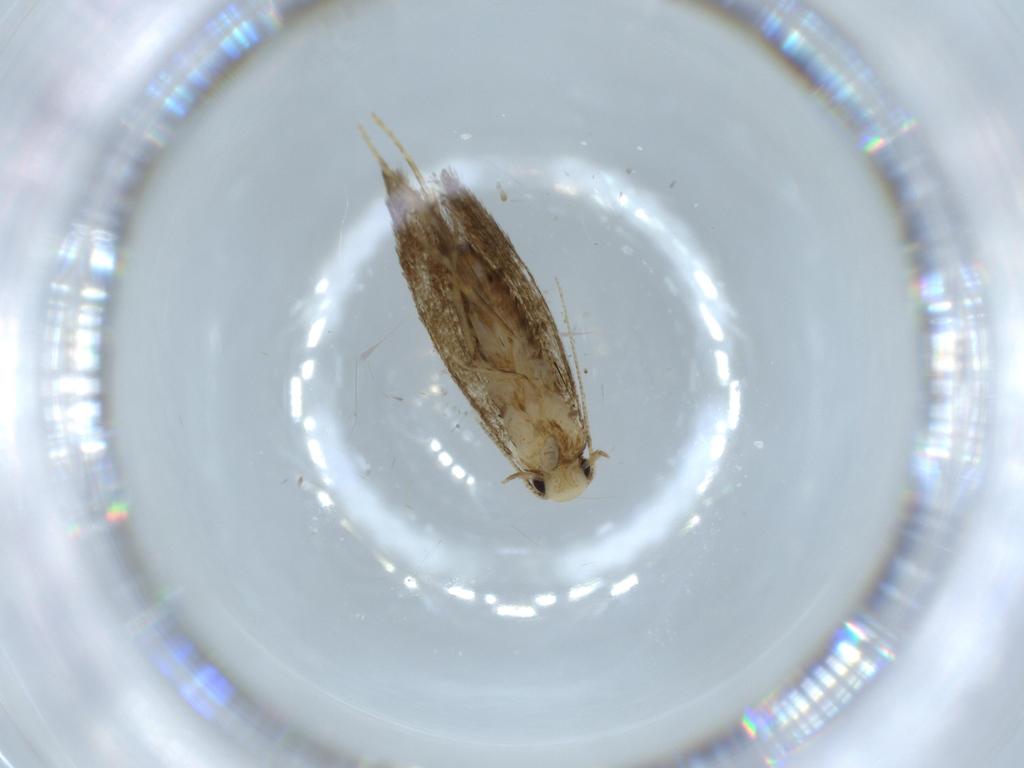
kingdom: Animalia
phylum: Arthropoda
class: Insecta
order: Lepidoptera
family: Tineidae
